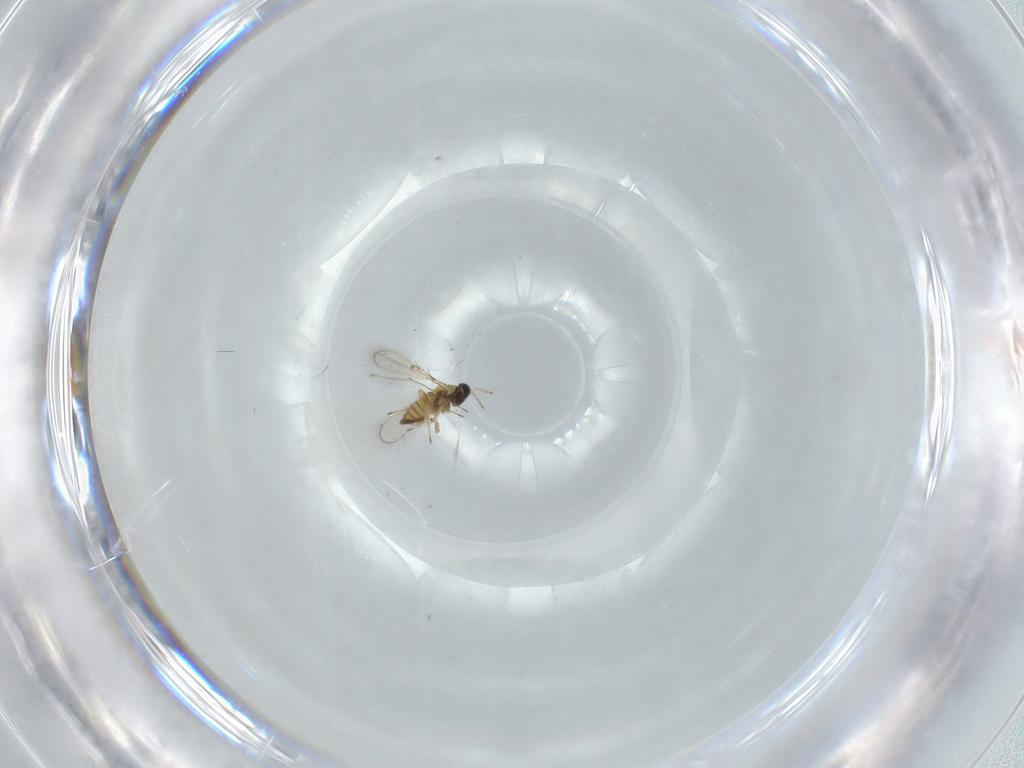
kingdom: Animalia
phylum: Arthropoda
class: Insecta
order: Hymenoptera
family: Trichogrammatidae
